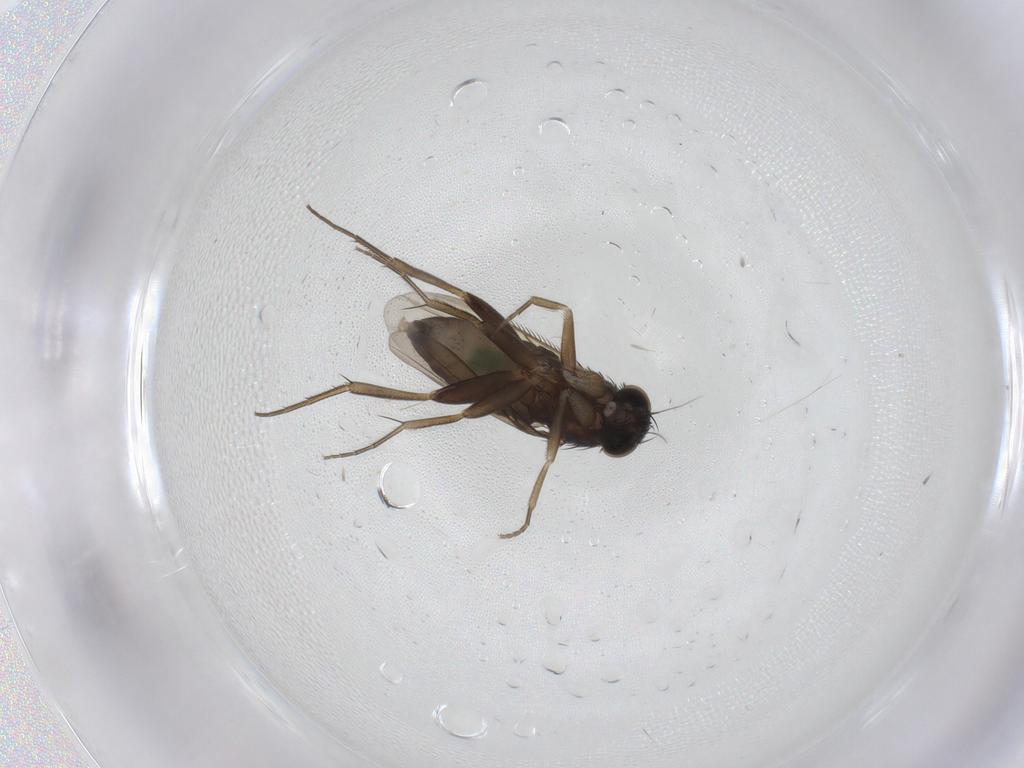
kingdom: Animalia
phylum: Arthropoda
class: Insecta
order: Diptera
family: Phoridae
